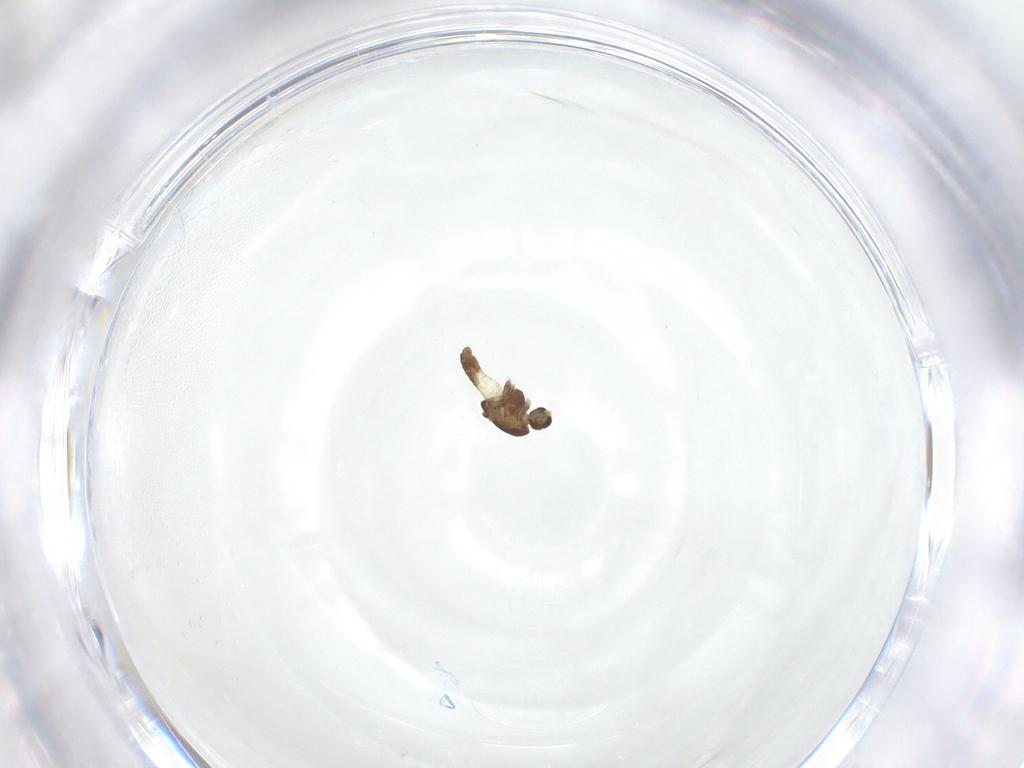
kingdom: Animalia
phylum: Arthropoda
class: Insecta
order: Diptera
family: Chironomidae
